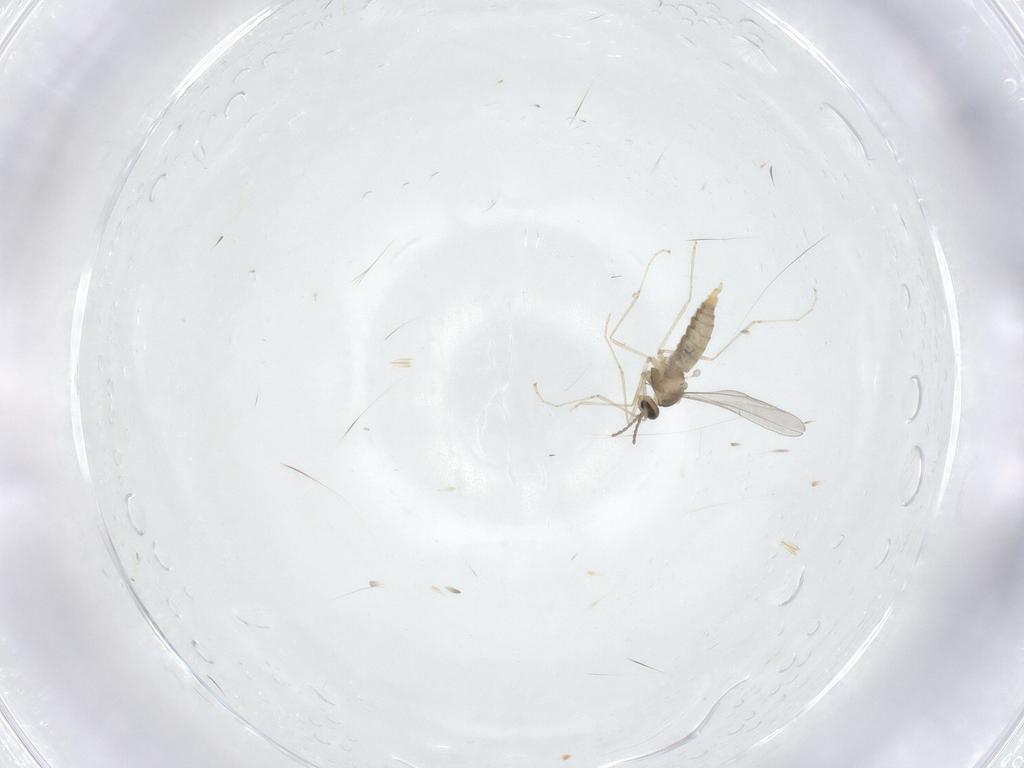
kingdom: Animalia
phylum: Arthropoda
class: Insecta
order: Diptera
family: Cecidomyiidae
